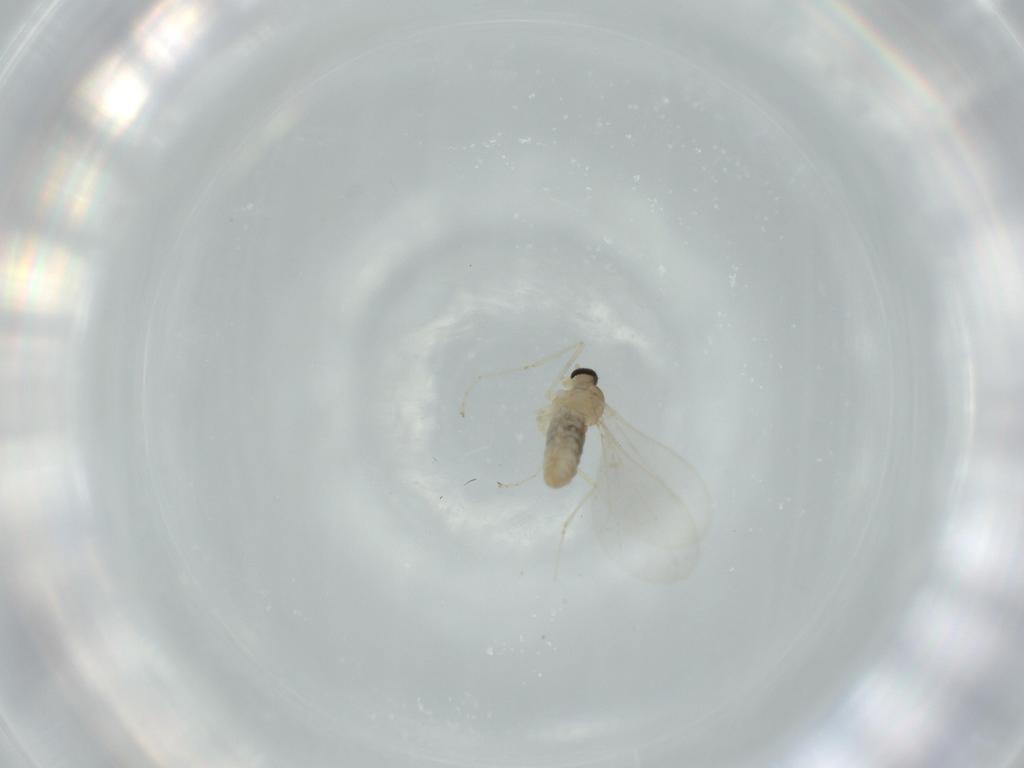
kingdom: Animalia
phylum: Arthropoda
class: Insecta
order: Diptera
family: Cecidomyiidae
